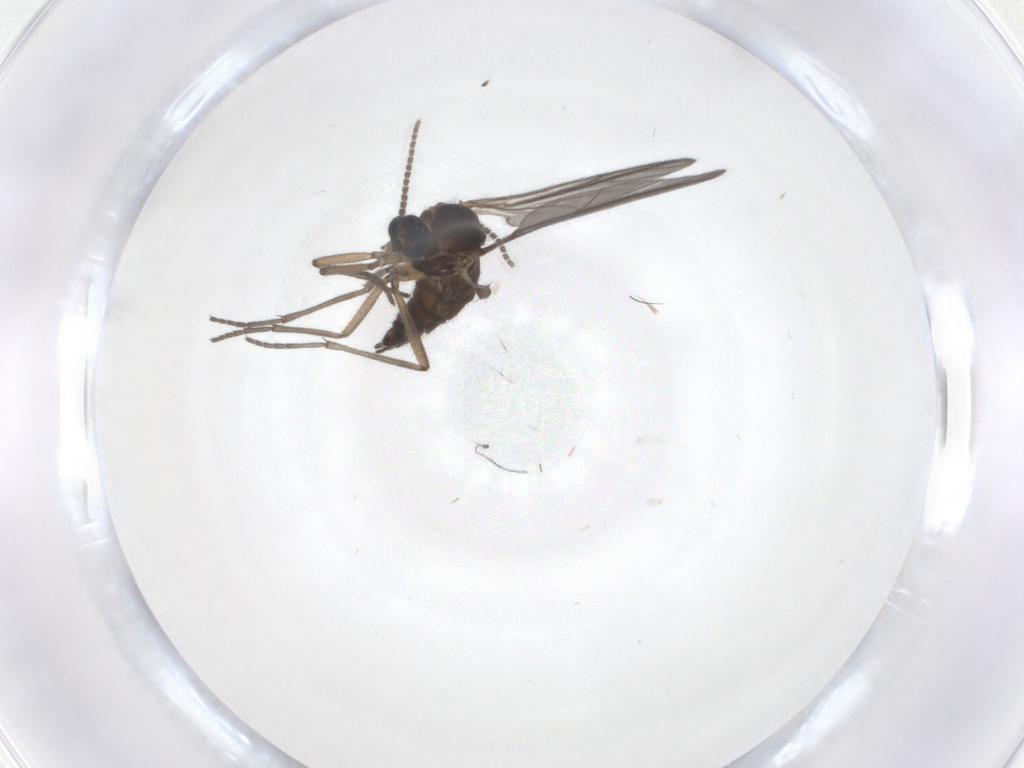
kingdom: Animalia
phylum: Arthropoda
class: Insecta
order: Diptera
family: Sciaridae
